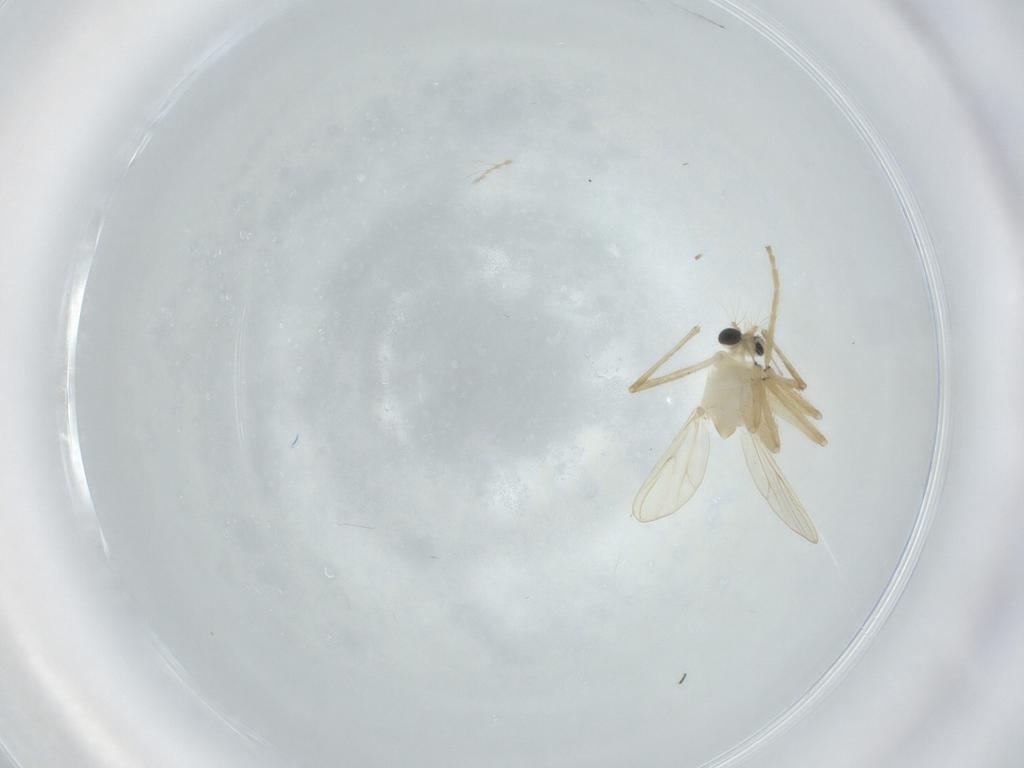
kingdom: Animalia
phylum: Arthropoda
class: Insecta
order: Diptera
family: Chironomidae
